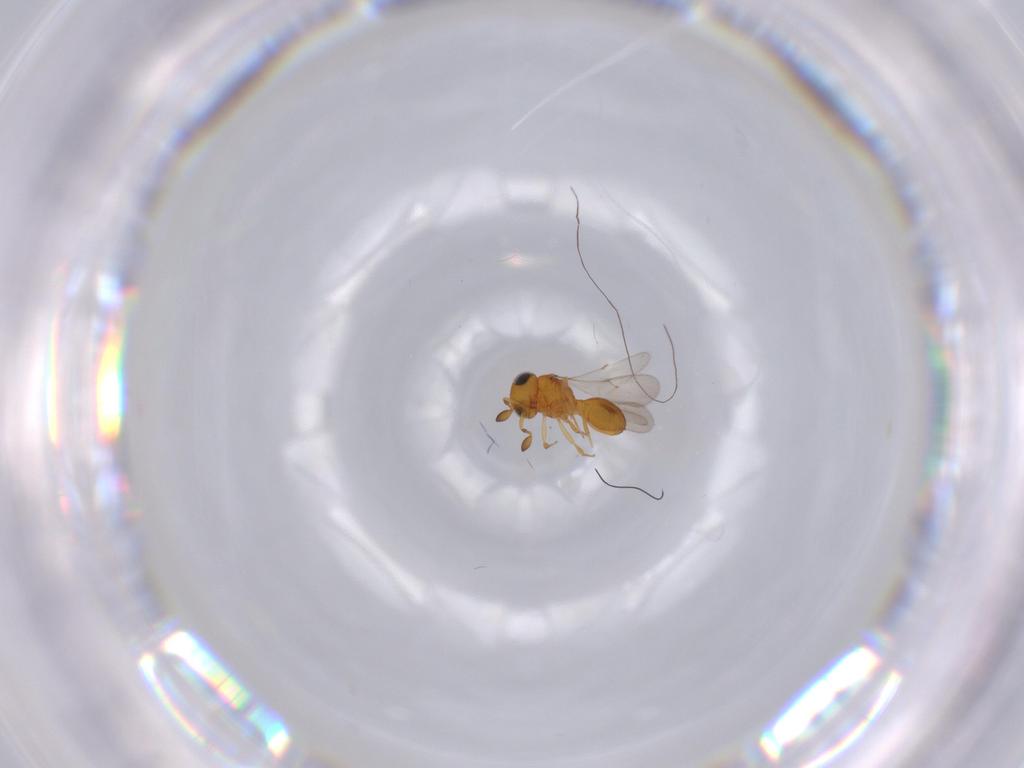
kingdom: Animalia
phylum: Arthropoda
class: Insecta
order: Hymenoptera
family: Scelionidae
